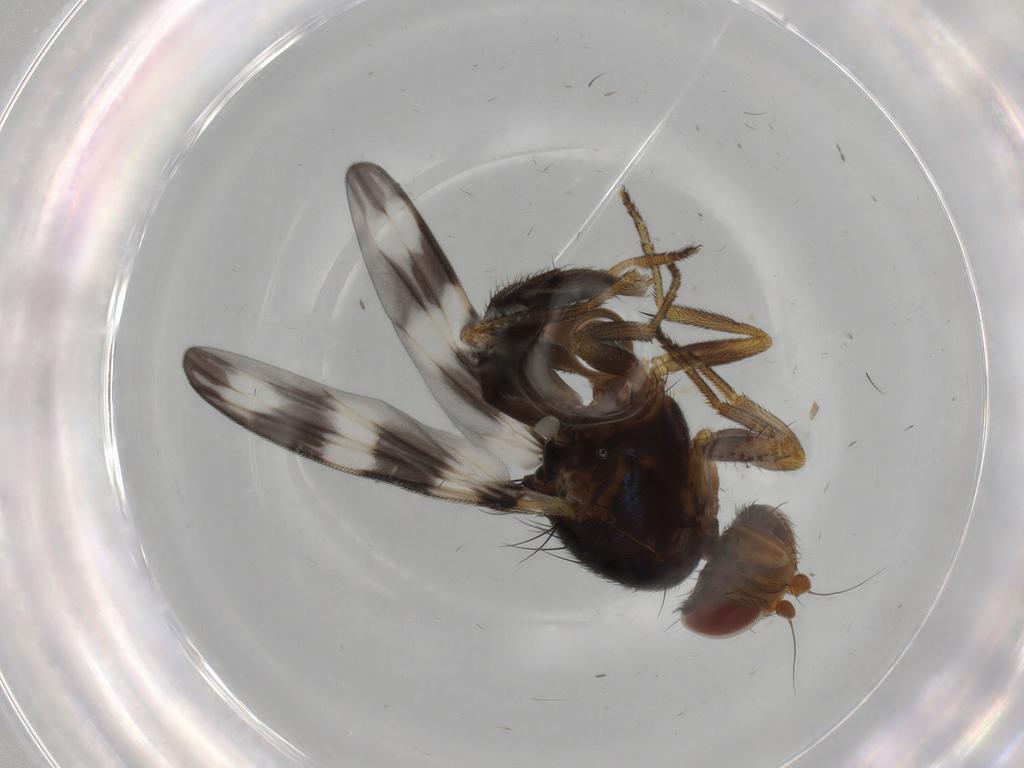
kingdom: Animalia
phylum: Arthropoda
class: Insecta
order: Diptera
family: Ulidiidae
